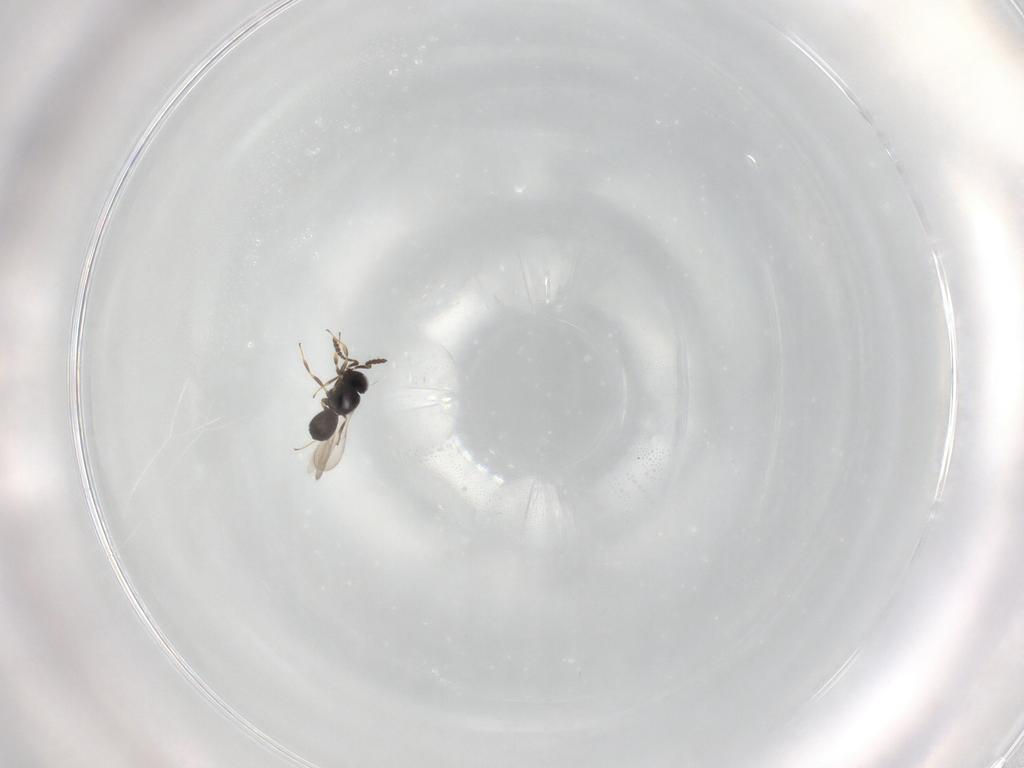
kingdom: Animalia
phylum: Arthropoda
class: Insecta
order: Hymenoptera
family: Scelionidae
